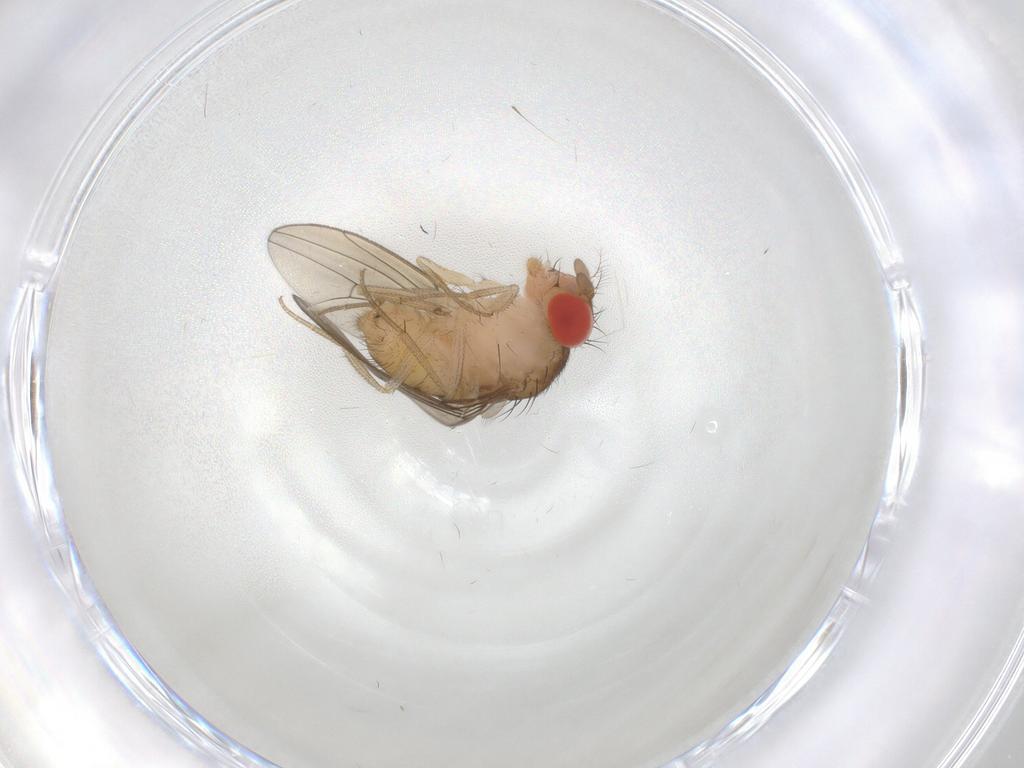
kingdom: Animalia
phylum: Arthropoda
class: Insecta
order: Diptera
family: Drosophilidae
